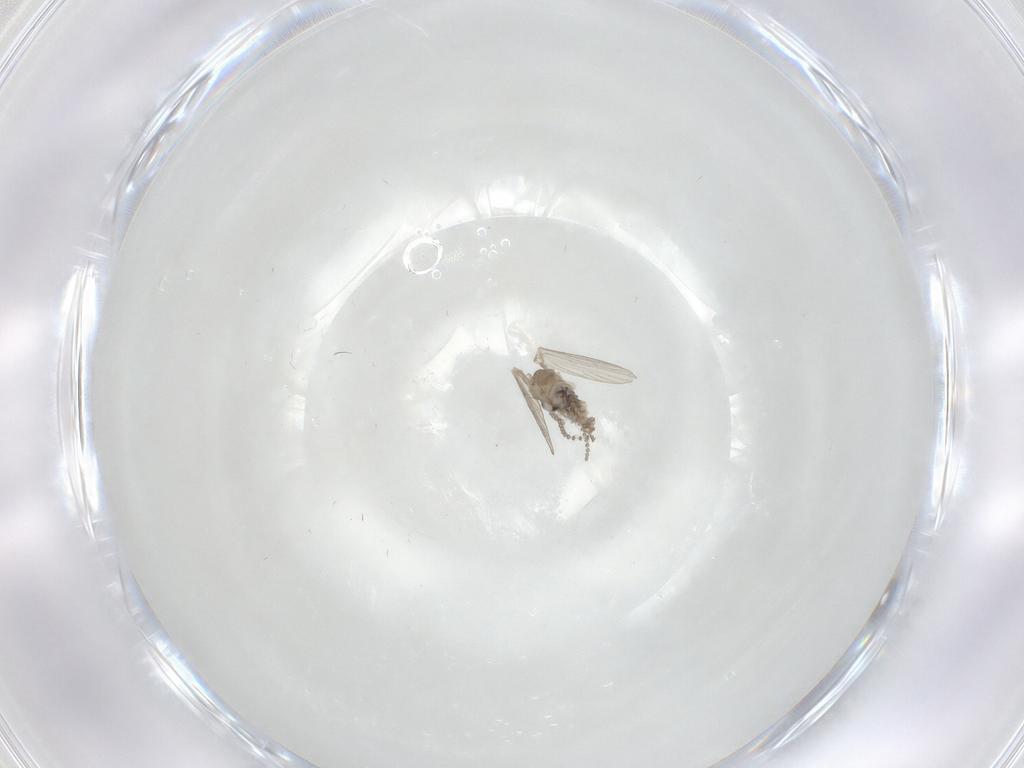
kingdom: Animalia
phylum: Arthropoda
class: Insecta
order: Diptera
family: Psychodidae
